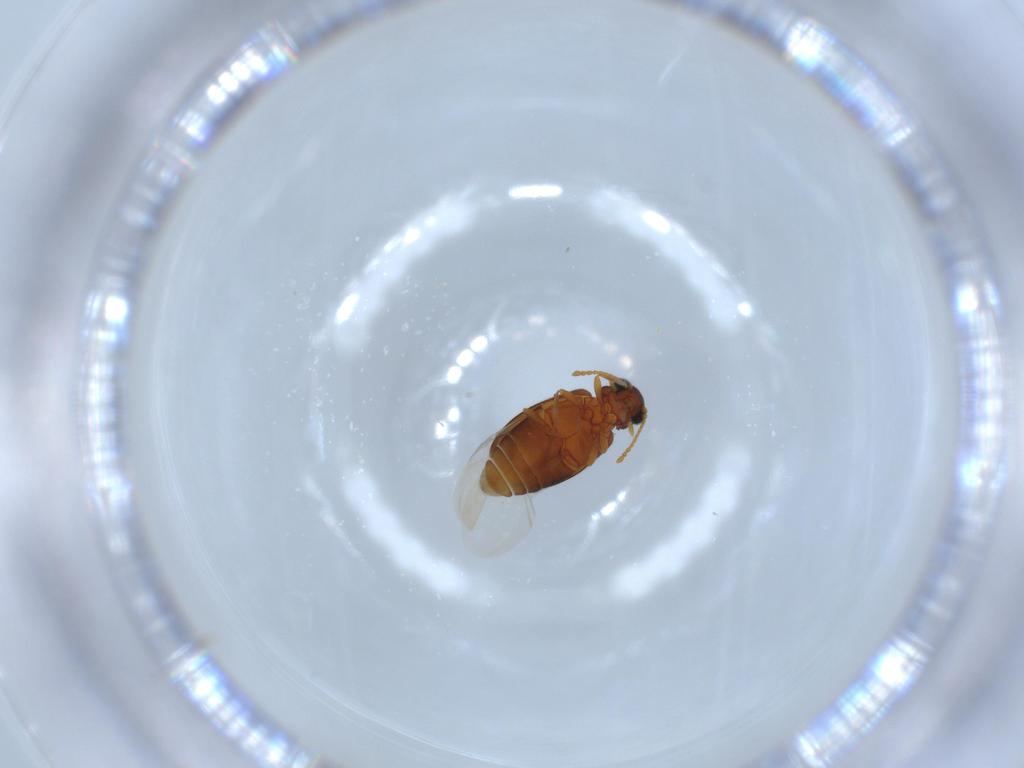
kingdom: Animalia
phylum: Arthropoda
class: Insecta
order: Coleoptera
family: Aderidae
